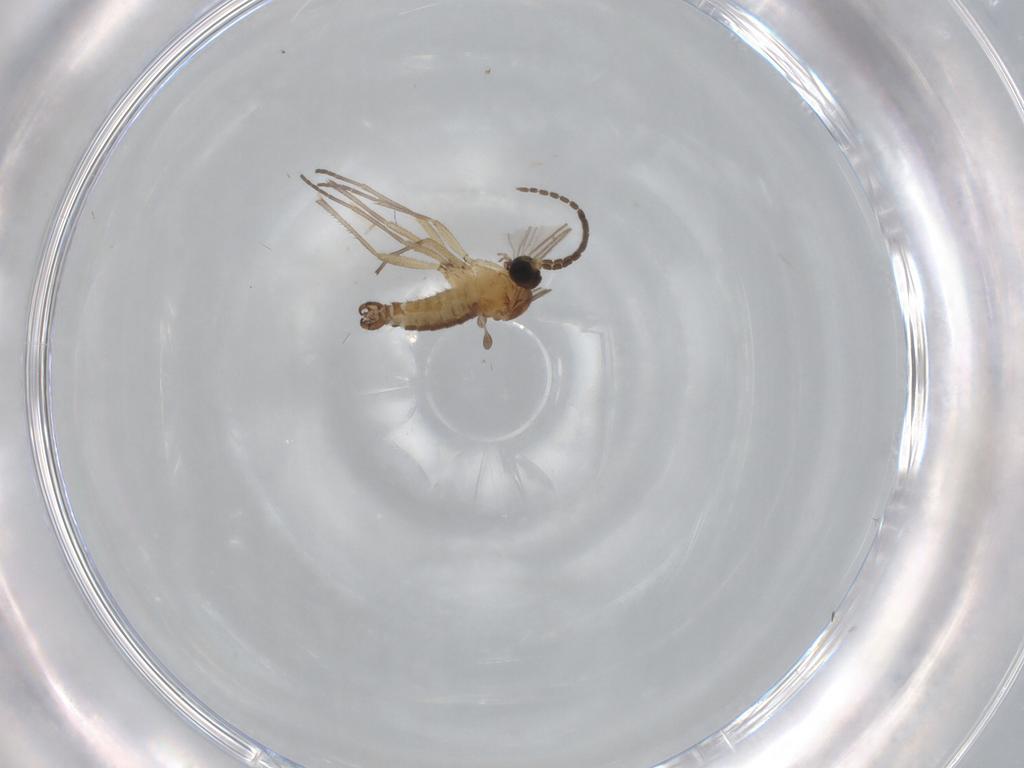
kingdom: Animalia
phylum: Arthropoda
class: Insecta
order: Diptera
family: Sciaridae
